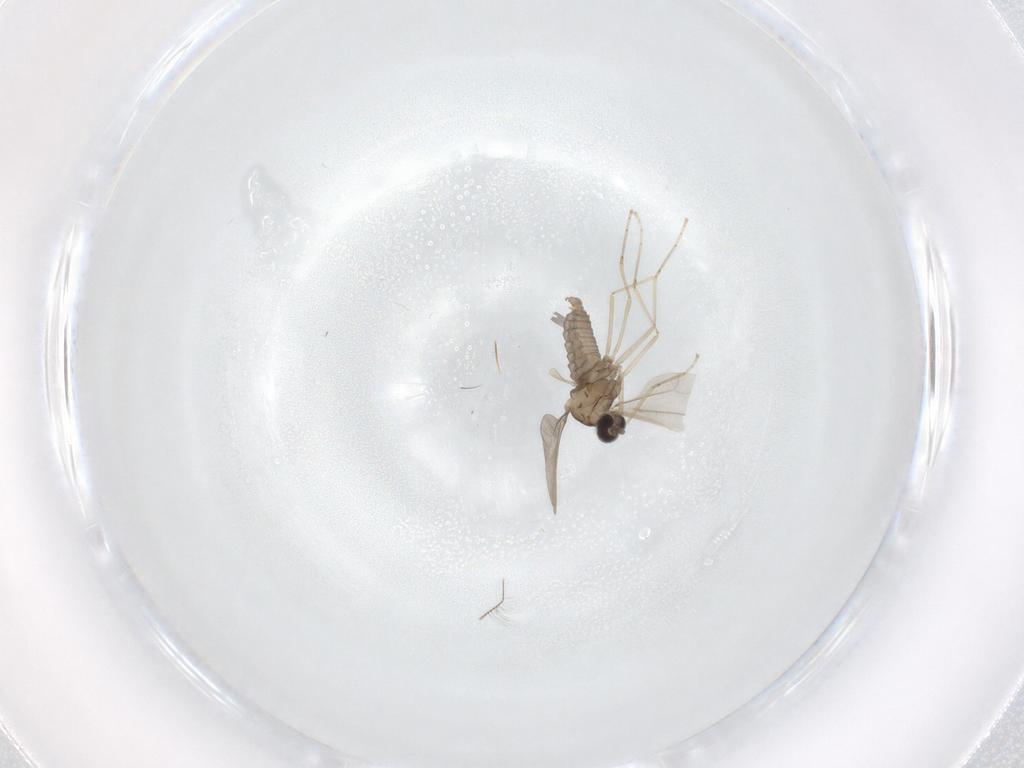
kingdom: Animalia
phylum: Arthropoda
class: Insecta
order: Diptera
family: Cecidomyiidae
